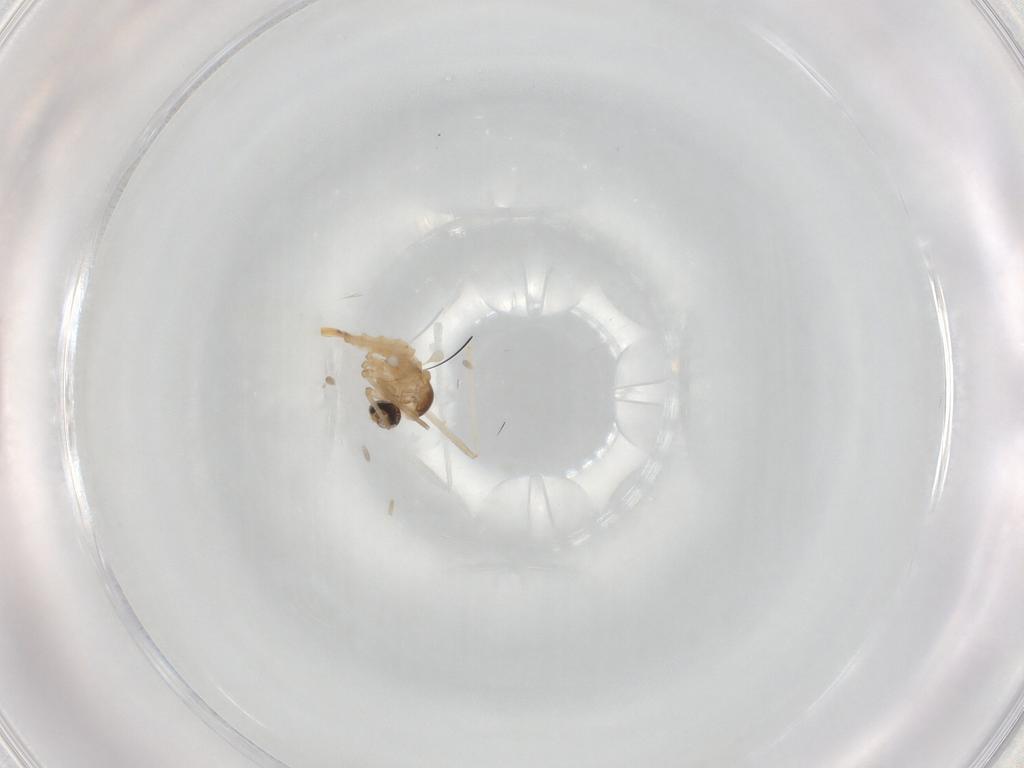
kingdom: Animalia
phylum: Arthropoda
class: Insecta
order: Diptera
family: Cecidomyiidae
